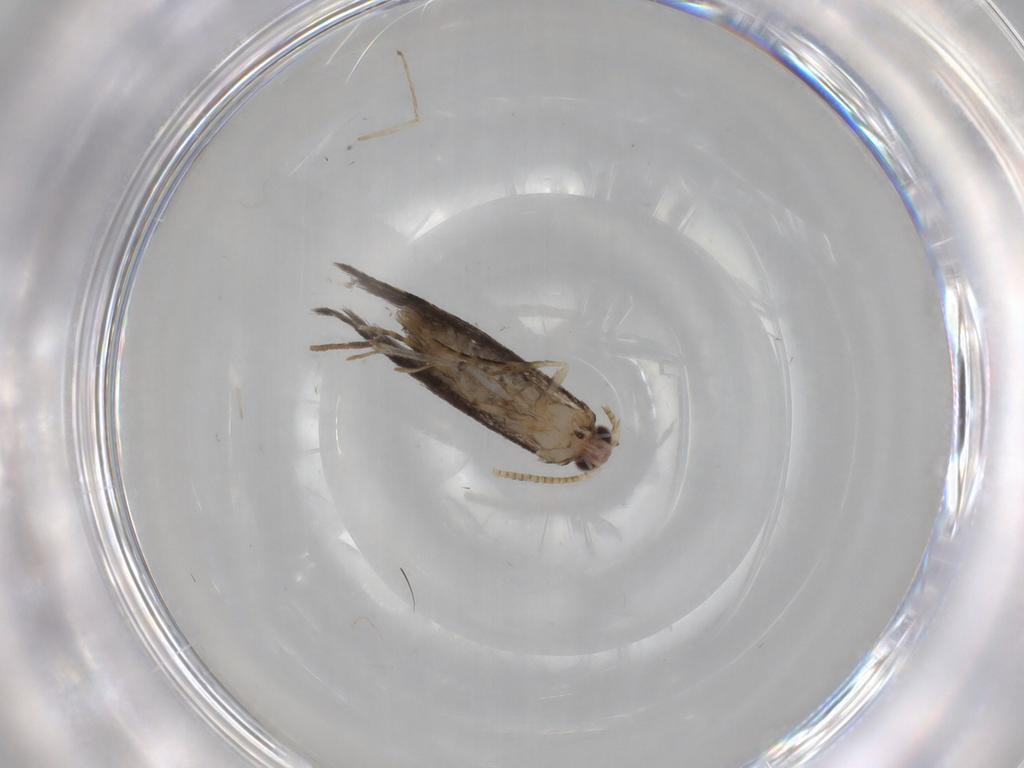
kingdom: Animalia
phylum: Arthropoda
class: Insecta
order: Lepidoptera
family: Tineidae
